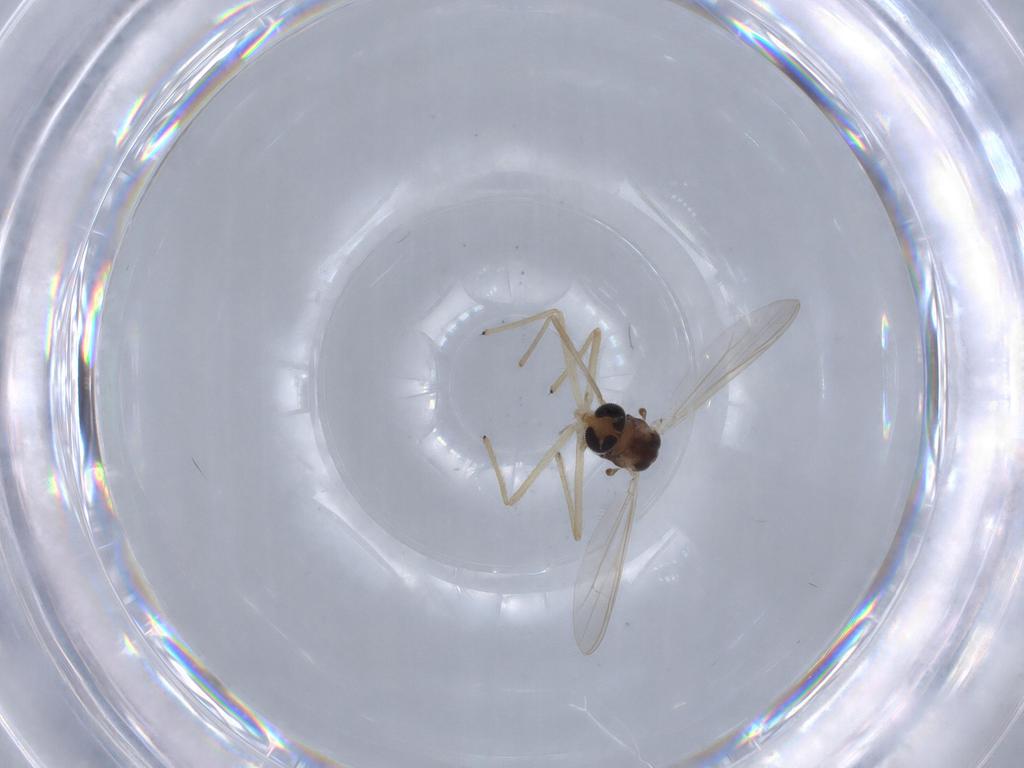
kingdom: Animalia
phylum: Arthropoda
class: Insecta
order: Diptera
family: Chironomidae
